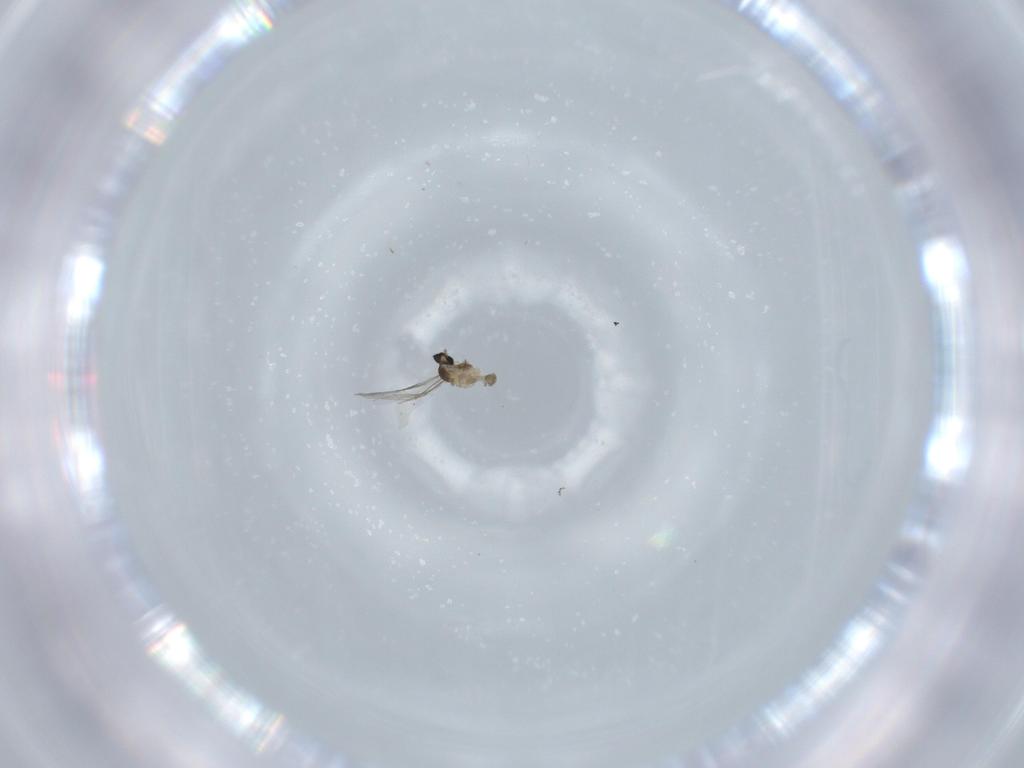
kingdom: Animalia
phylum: Arthropoda
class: Insecta
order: Diptera
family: Cecidomyiidae
